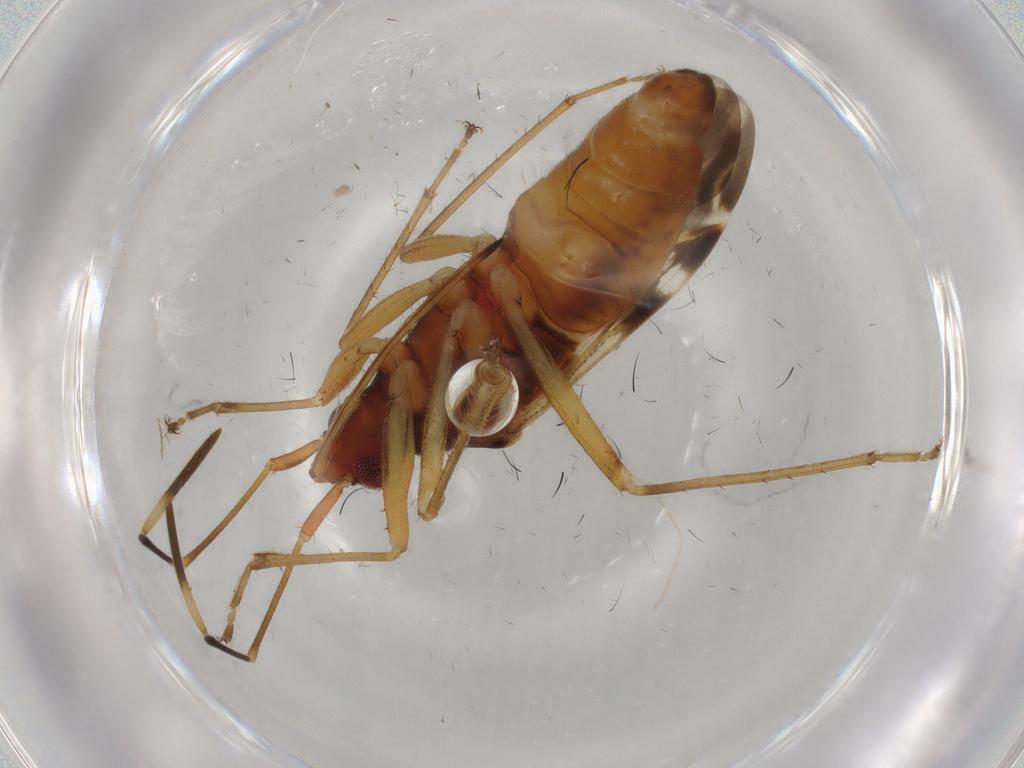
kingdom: Animalia
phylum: Arthropoda
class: Insecta
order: Hemiptera
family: Rhyparochromidae
